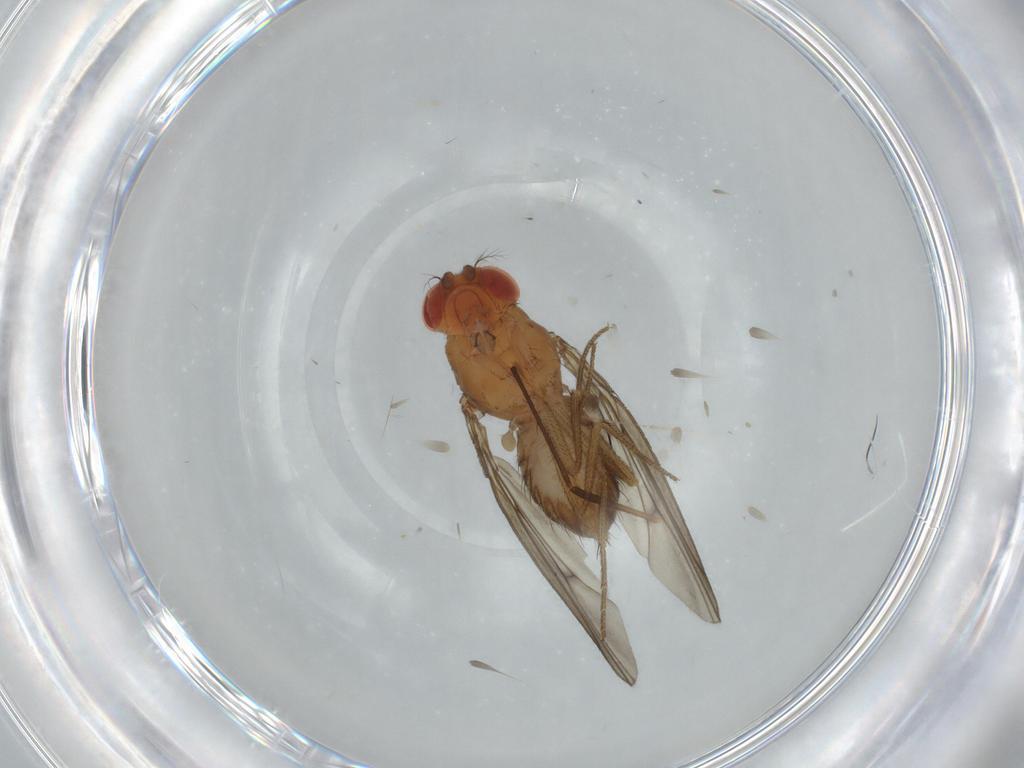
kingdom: Animalia
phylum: Arthropoda
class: Insecta
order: Diptera
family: Drosophilidae
